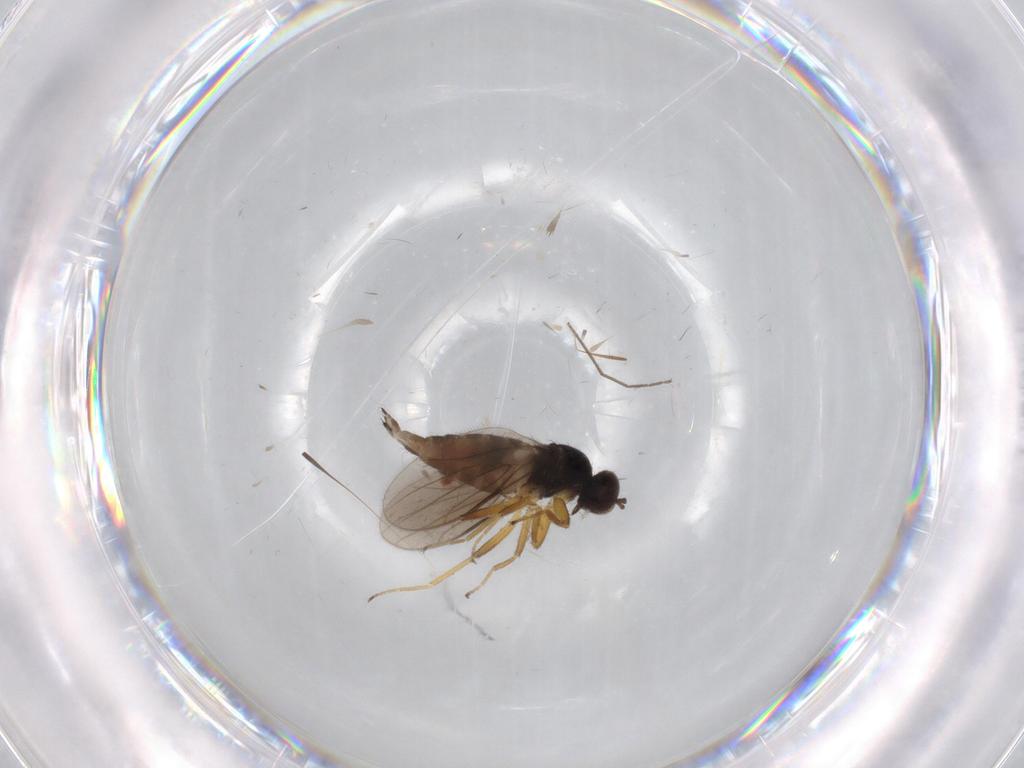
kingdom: Animalia
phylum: Arthropoda
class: Insecta
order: Diptera
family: Hybotidae
